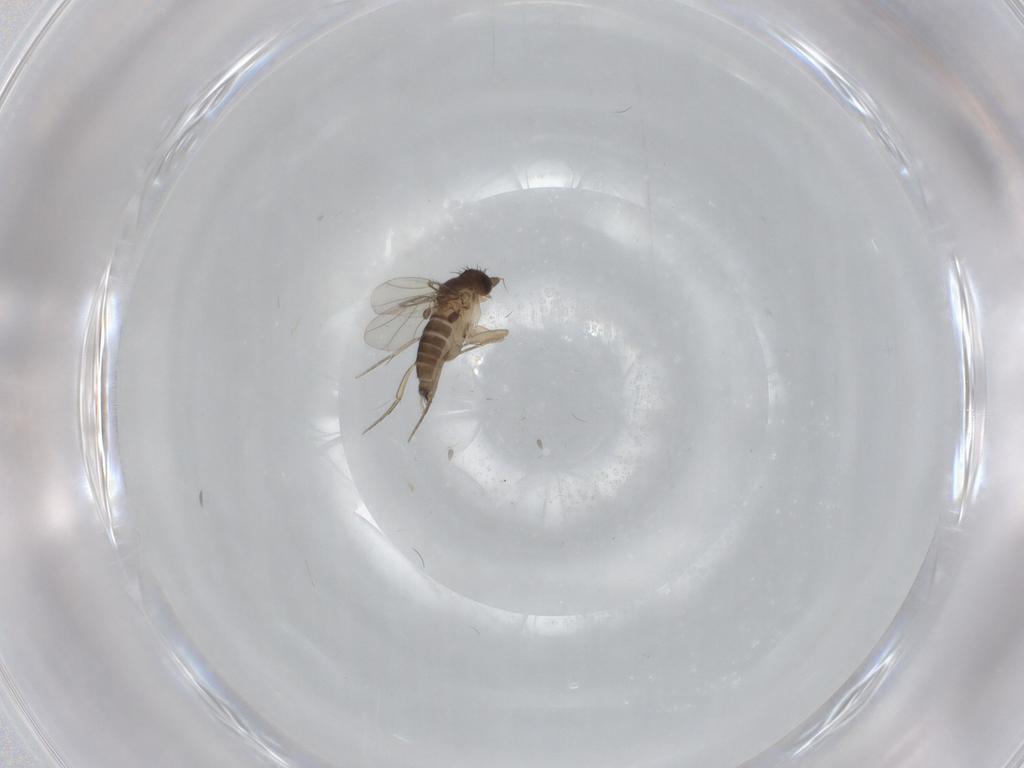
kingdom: Animalia
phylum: Arthropoda
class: Insecta
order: Diptera
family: Phoridae
